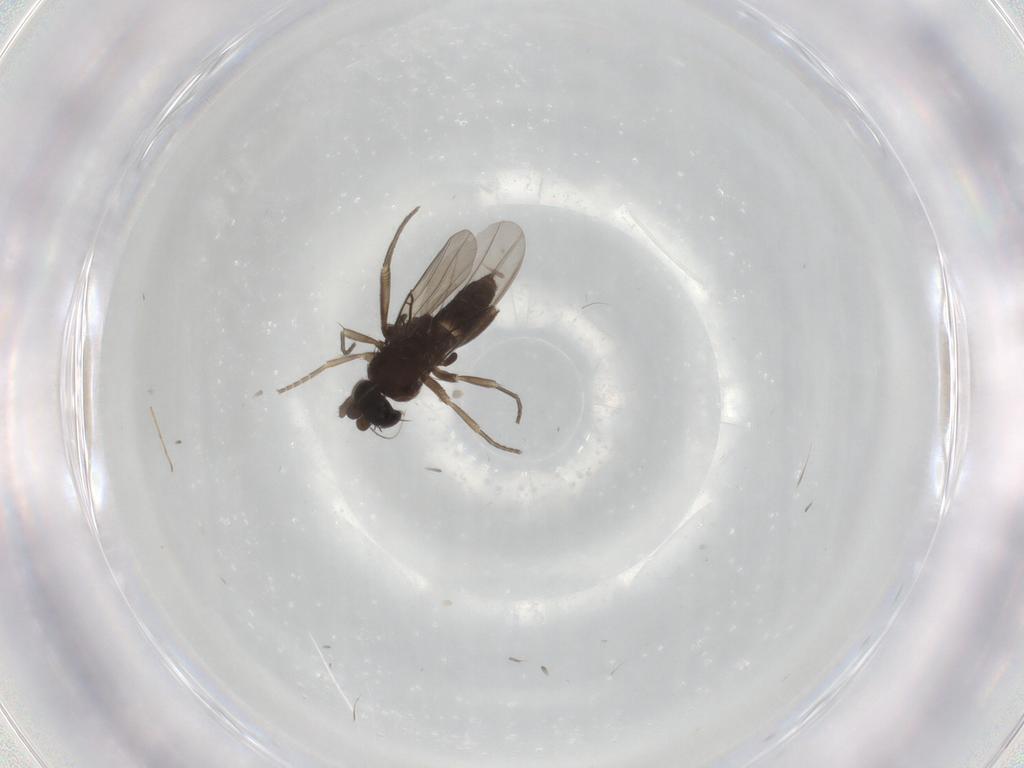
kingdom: Animalia
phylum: Arthropoda
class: Insecta
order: Diptera
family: Phoridae
